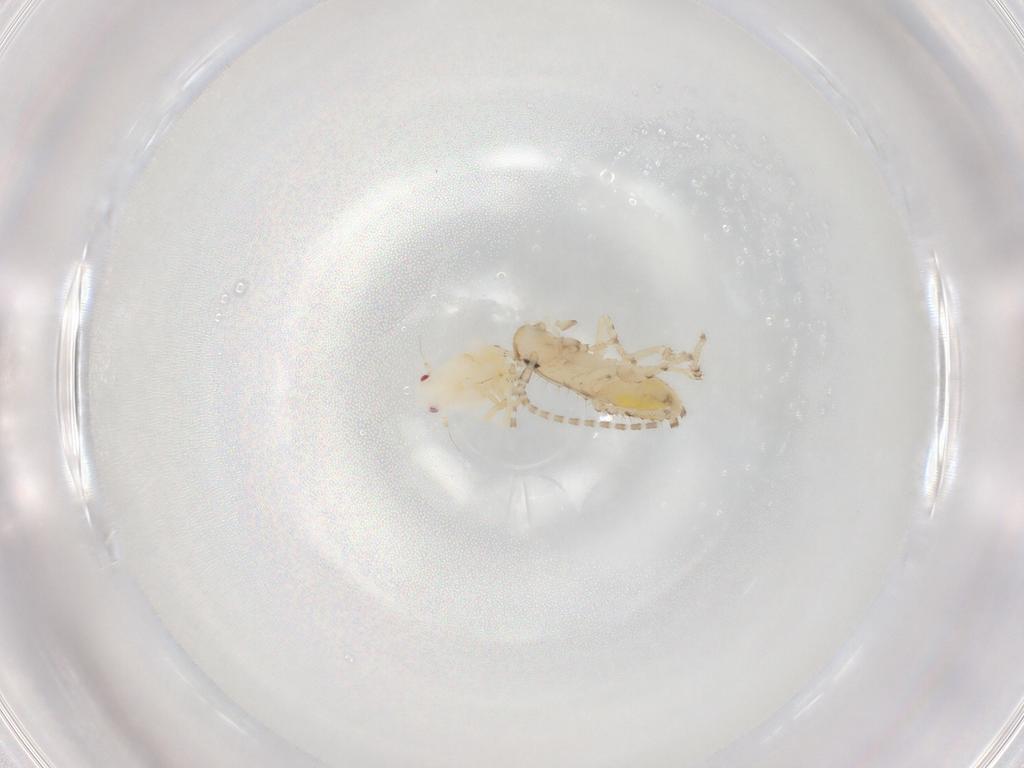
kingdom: Animalia
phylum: Arthropoda
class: Insecta
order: Blattodea
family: Ectobiidae
